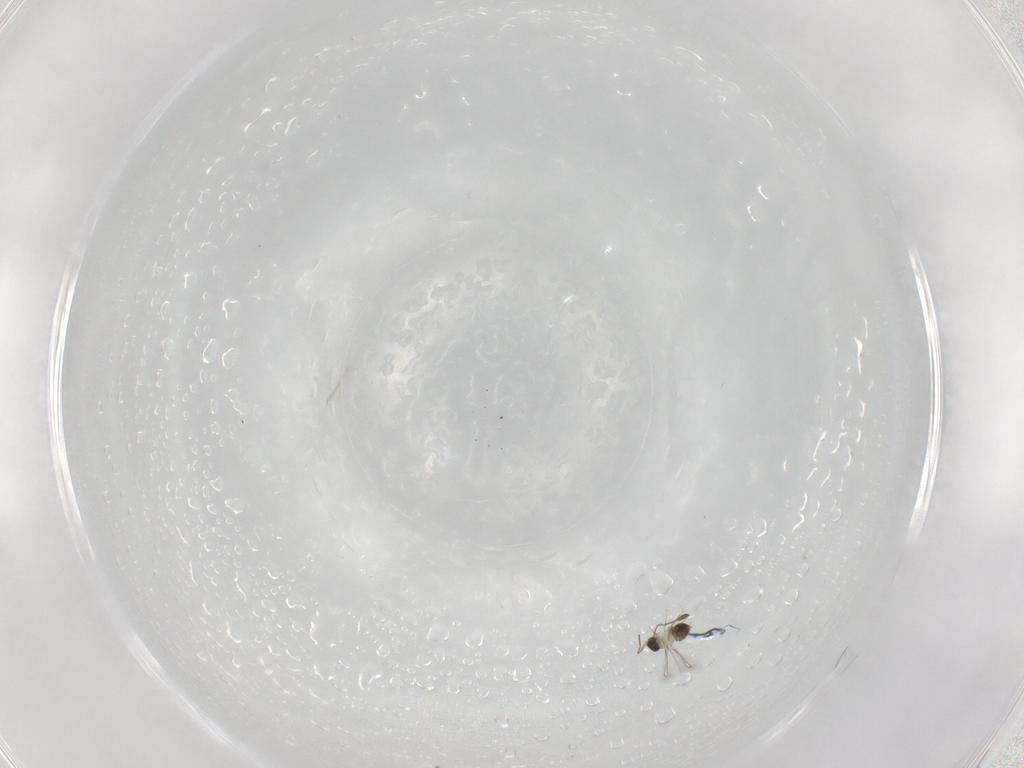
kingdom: Animalia
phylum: Arthropoda
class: Insecta
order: Hymenoptera
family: Mymaridae
